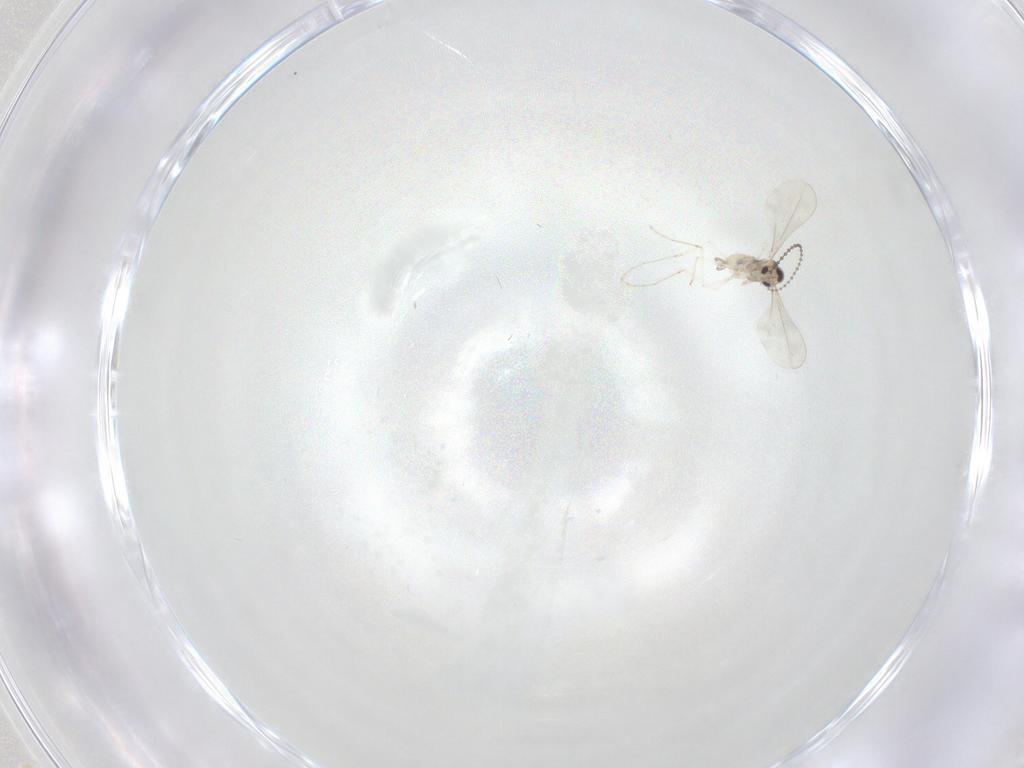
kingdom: Animalia
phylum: Arthropoda
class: Insecta
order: Diptera
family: Cecidomyiidae
